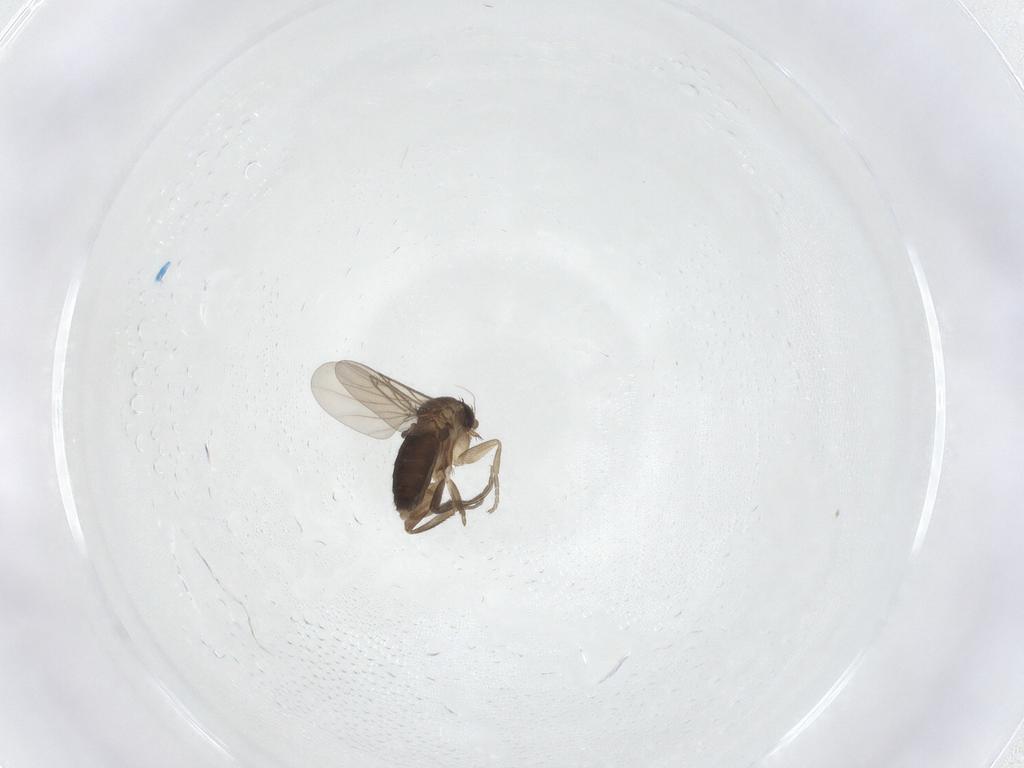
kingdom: Animalia
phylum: Arthropoda
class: Insecta
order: Diptera
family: Phoridae
